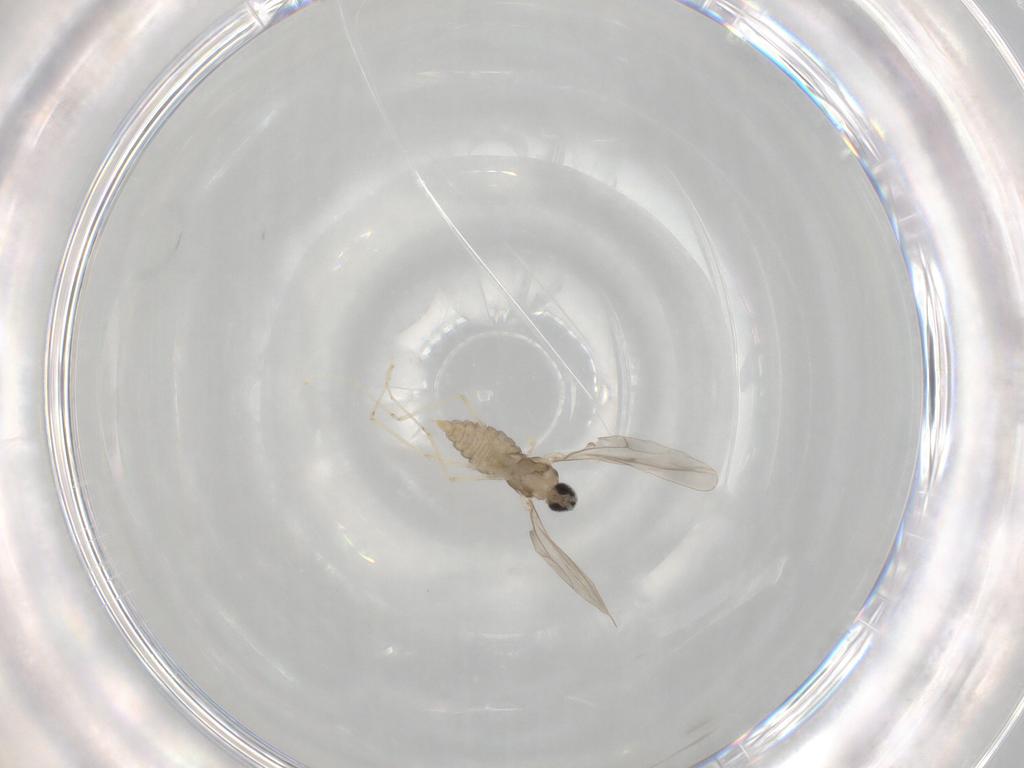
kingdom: Animalia
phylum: Arthropoda
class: Insecta
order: Diptera
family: Cecidomyiidae
